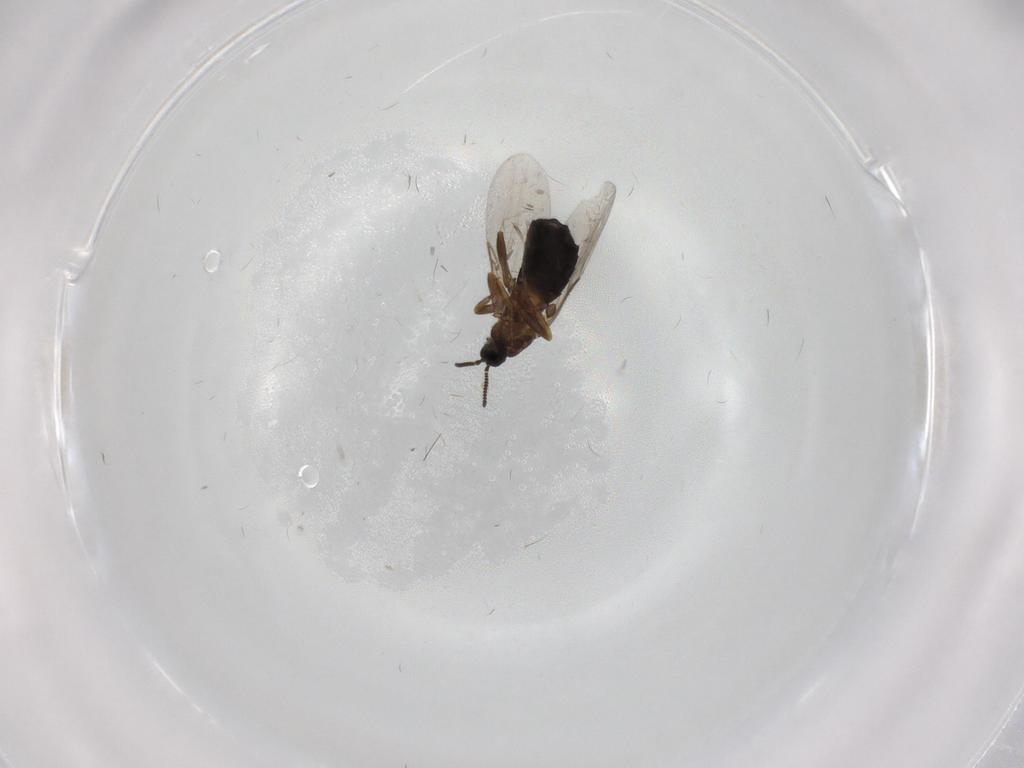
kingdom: Animalia
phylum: Arthropoda
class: Insecta
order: Diptera
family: Scatopsidae
